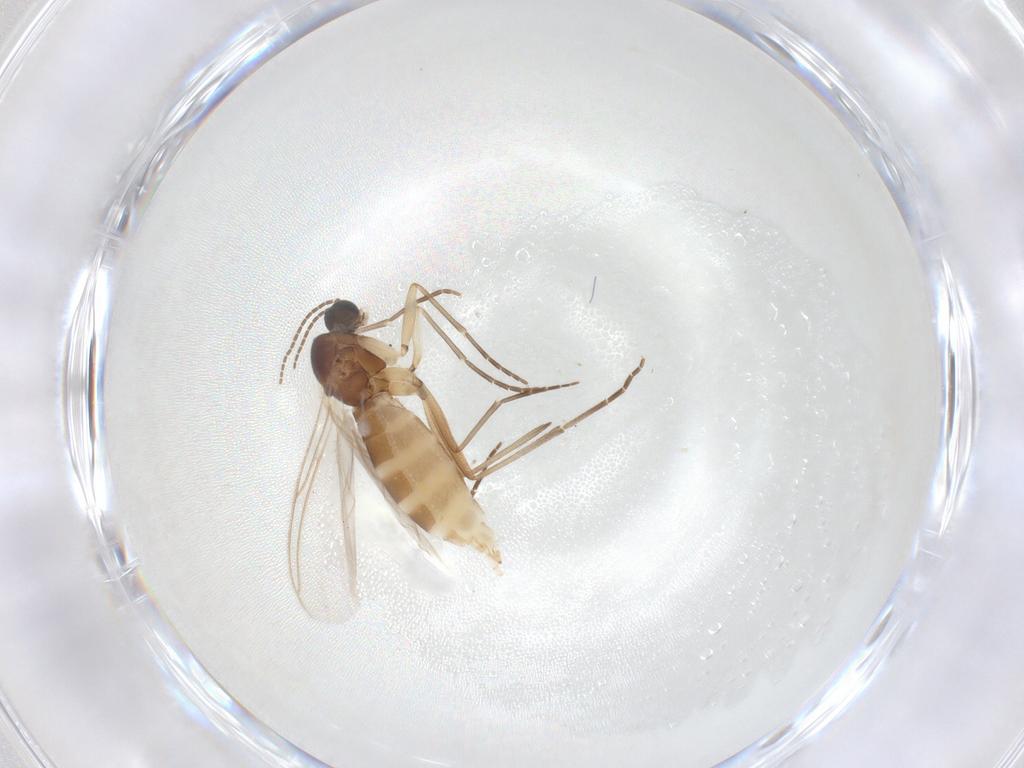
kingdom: Animalia
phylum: Arthropoda
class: Insecta
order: Diptera
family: Sciaridae
